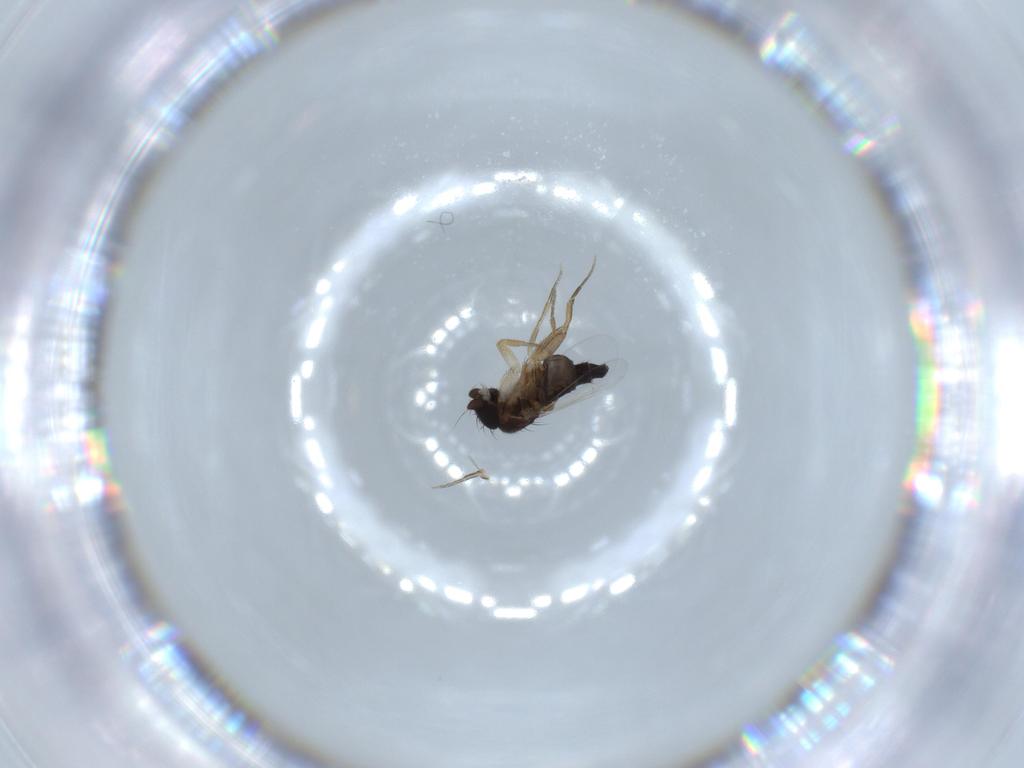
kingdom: Animalia
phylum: Arthropoda
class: Insecta
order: Diptera
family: Phoridae
